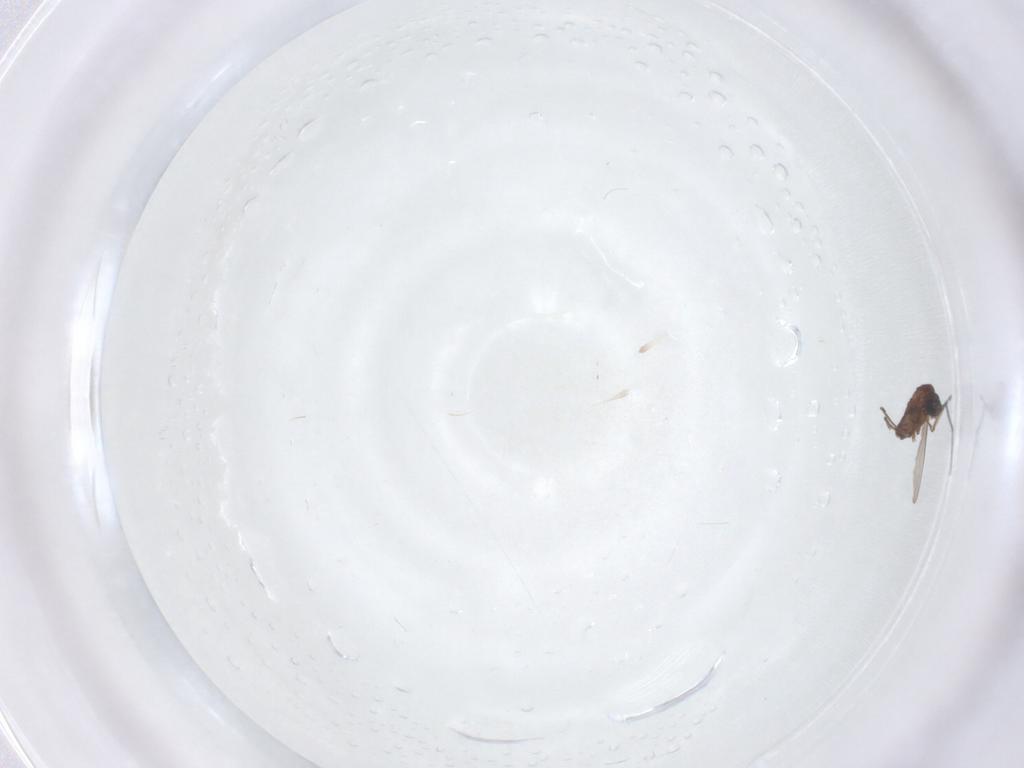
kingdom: Animalia
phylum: Arthropoda
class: Insecta
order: Diptera
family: Sciaridae
